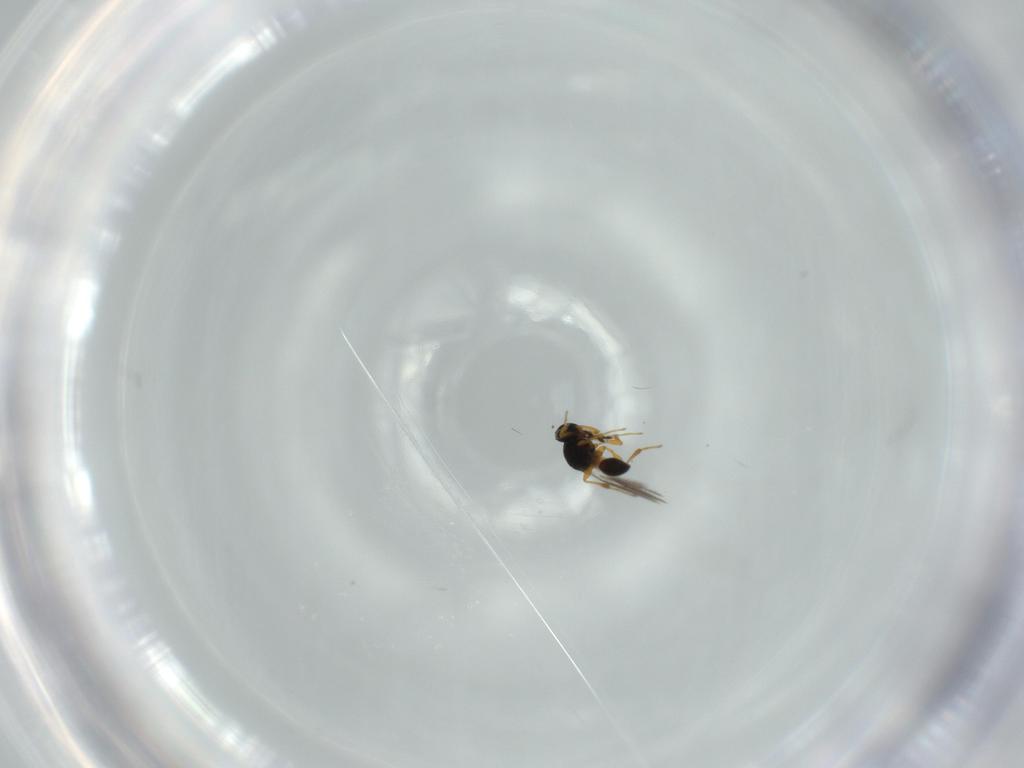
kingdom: Animalia
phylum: Arthropoda
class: Insecta
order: Hymenoptera
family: Platygastridae
